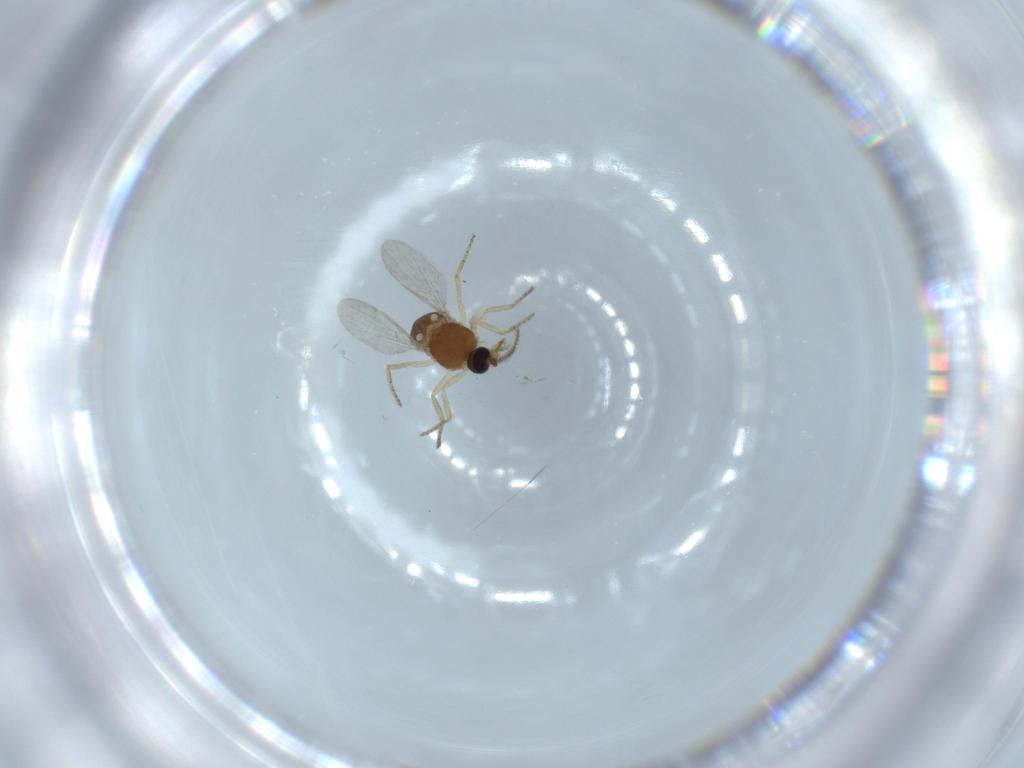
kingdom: Animalia
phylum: Arthropoda
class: Insecta
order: Diptera
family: Ceratopogonidae
